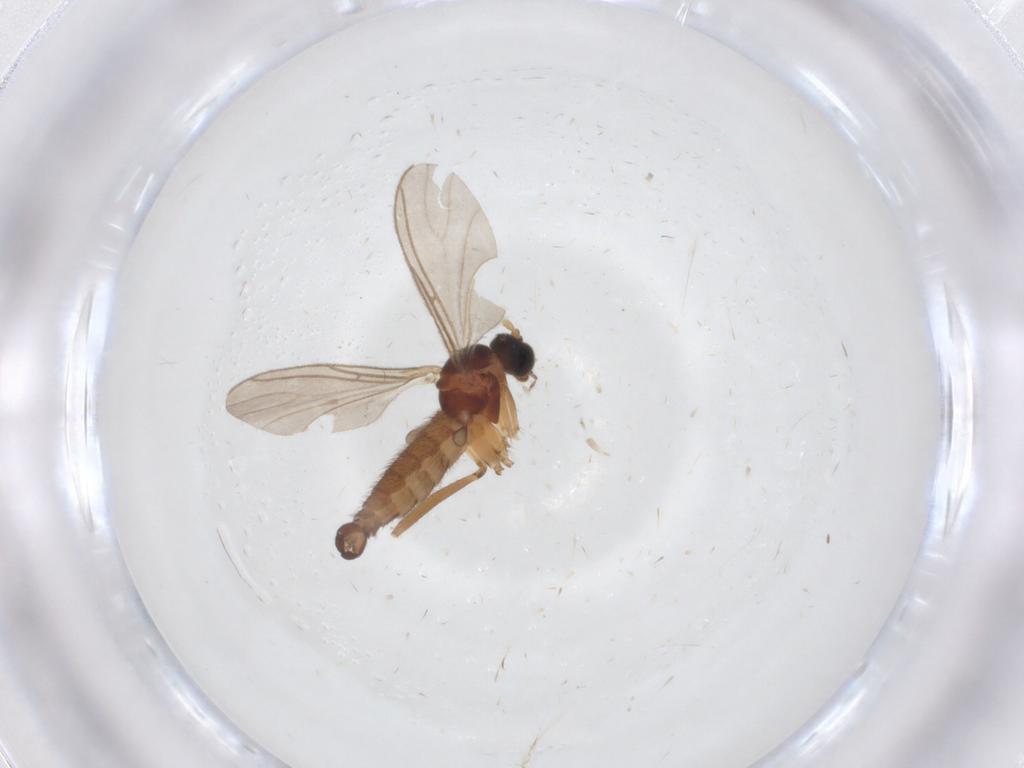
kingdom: Animalia
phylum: Arthropoda
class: Insecta
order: Diptera
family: Sciaridae
